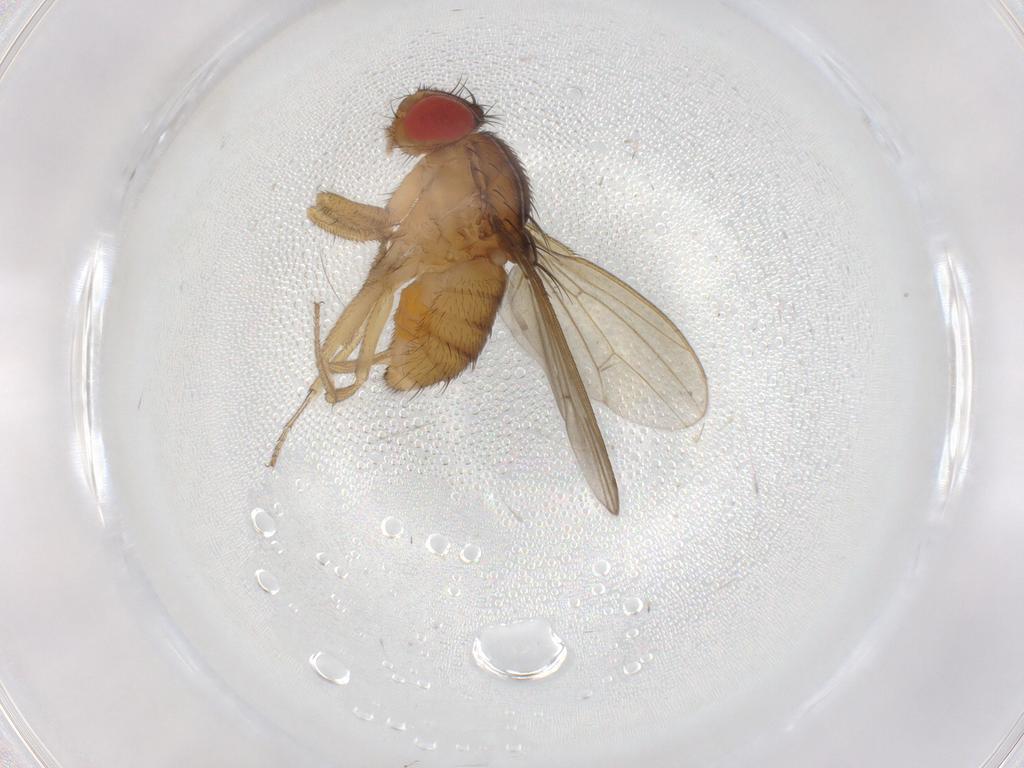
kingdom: Animalia
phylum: Arthropoda
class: Insecta
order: Diptera
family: Drosophilidae
